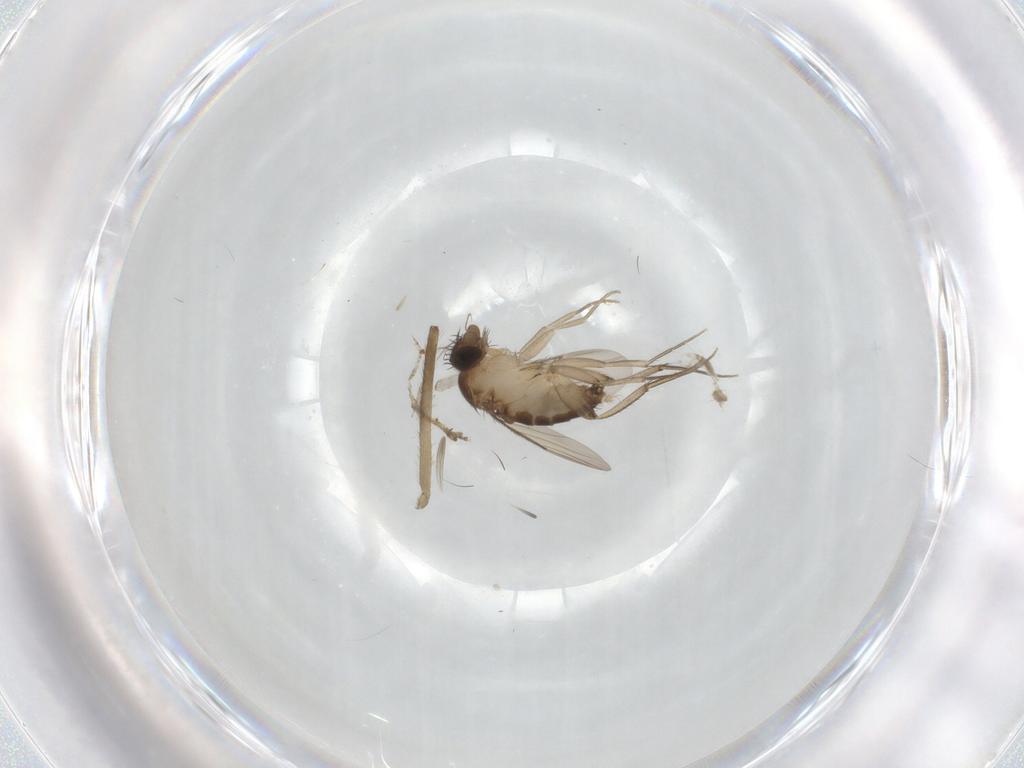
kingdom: Animalia
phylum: Arthropoda
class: Insecta
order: Diptera
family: Phoridae
